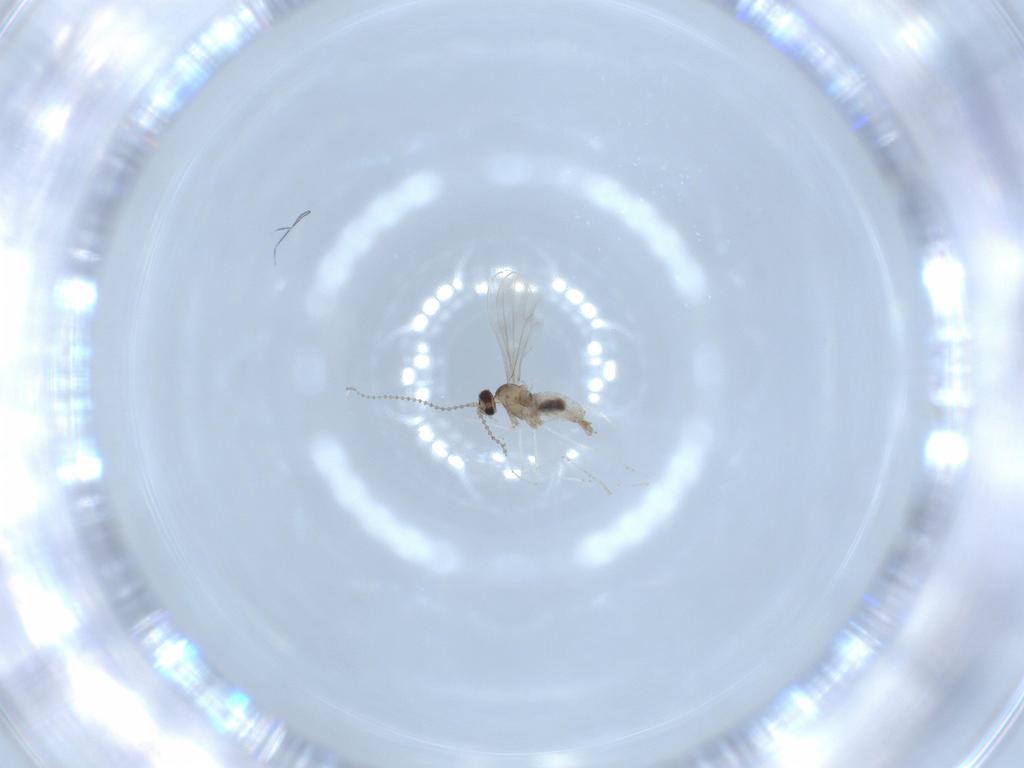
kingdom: Animalia
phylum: Arthropoda
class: Insecta
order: Diptera
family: Cecidomyiidae
